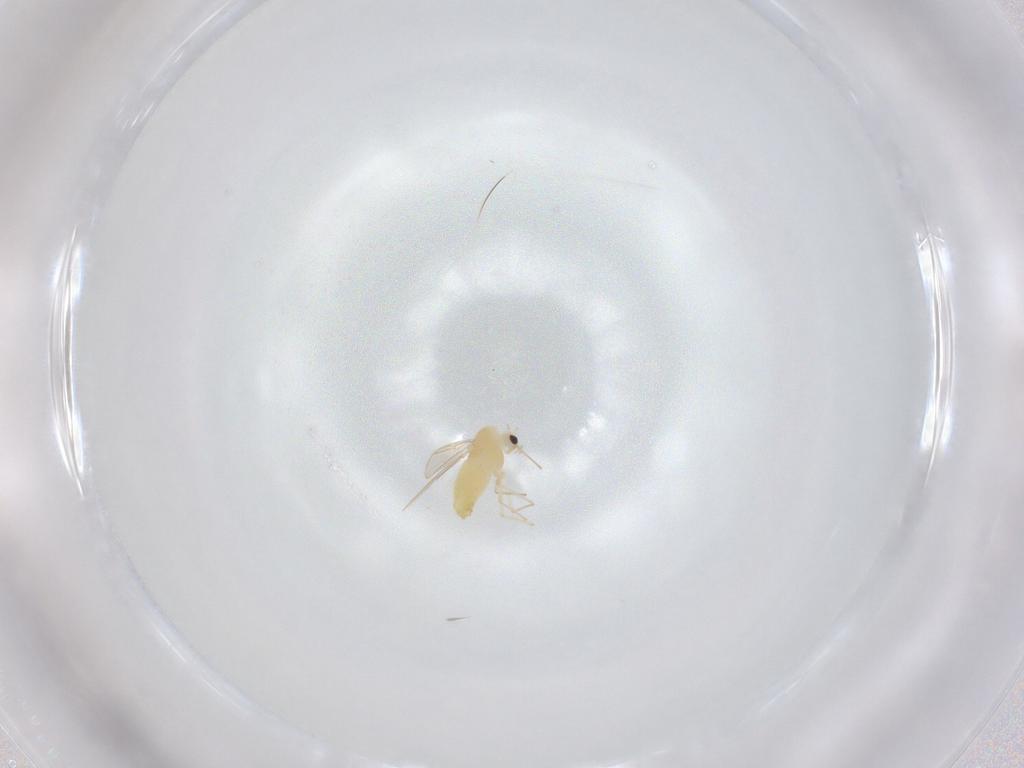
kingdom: Animalia
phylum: Arthropoda
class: Insecta
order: Diptera
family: Chironomidae
